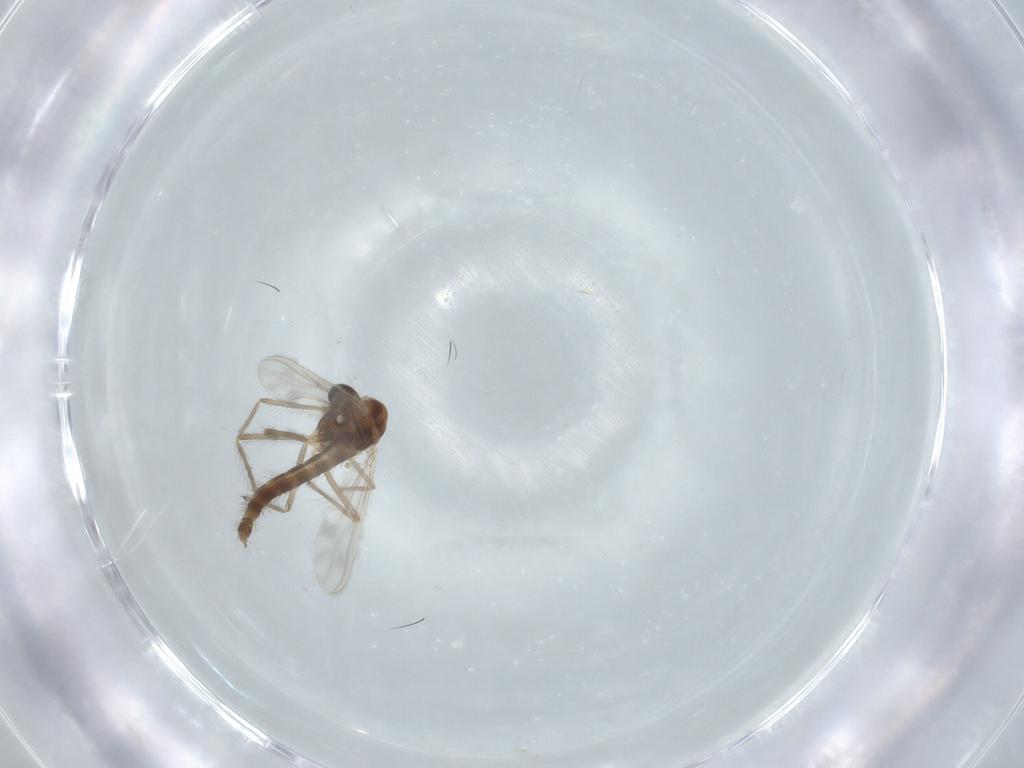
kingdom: Animalia
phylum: Arthropoda
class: Insecta
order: Diptera
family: Chironomidae
